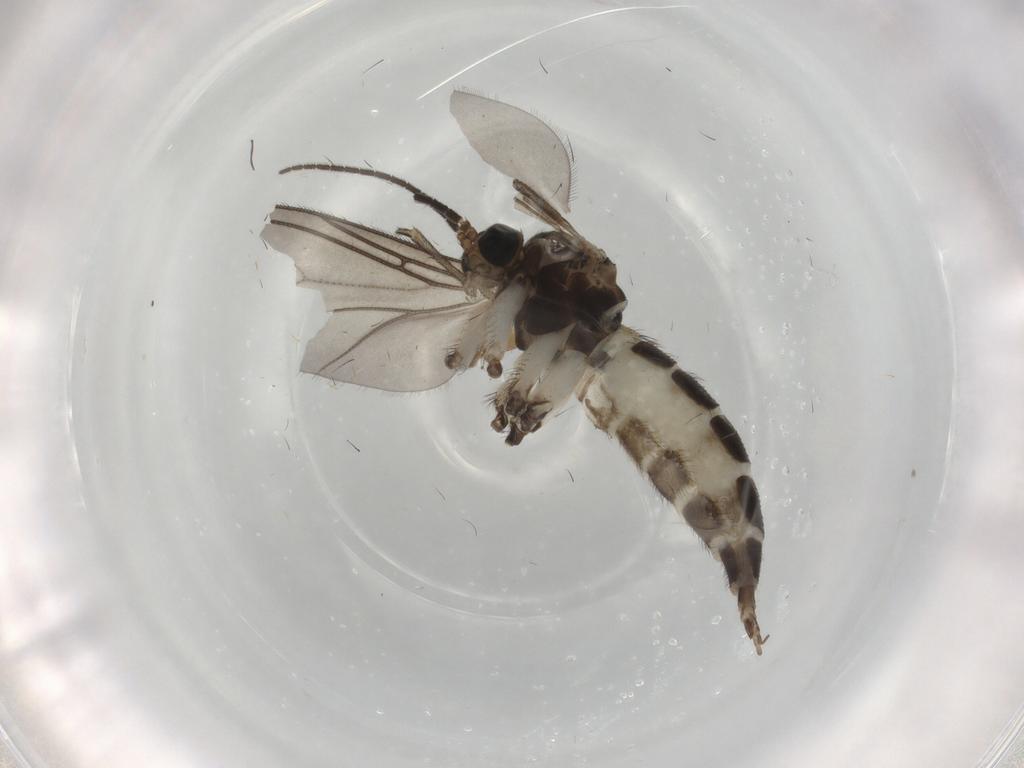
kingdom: Animalia
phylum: Arthropoda
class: Insecta
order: Diptera
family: Sciaridae
